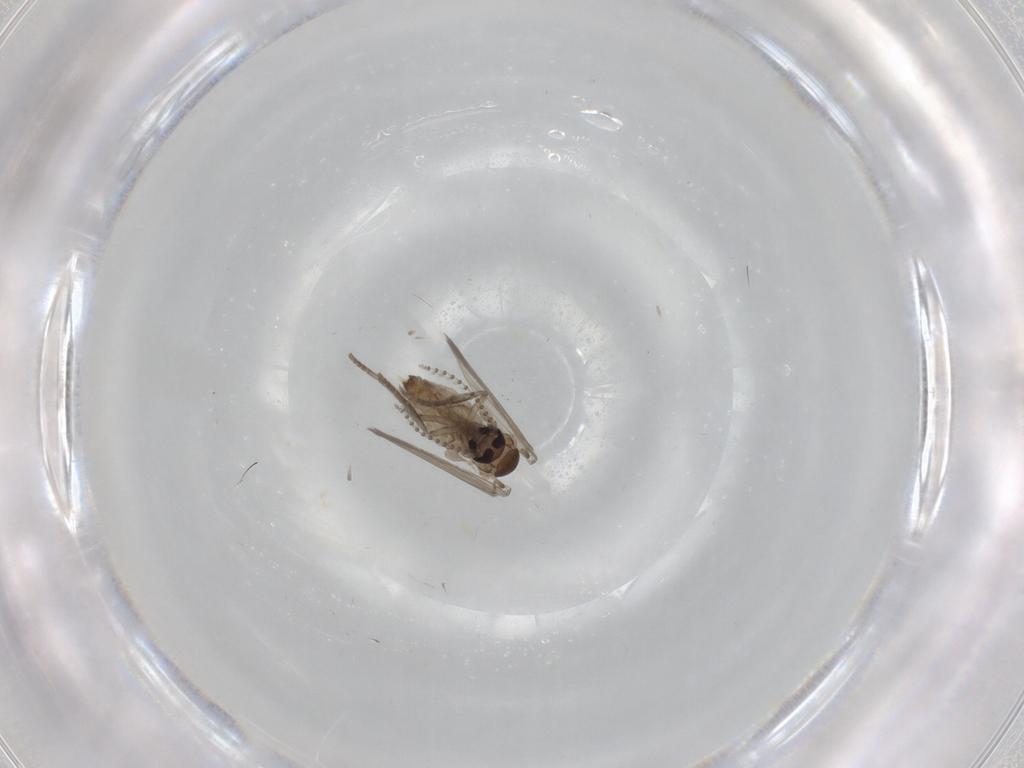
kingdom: Animalia
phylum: Arthropoda
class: Insecta
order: Diptera
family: Psychodidae
